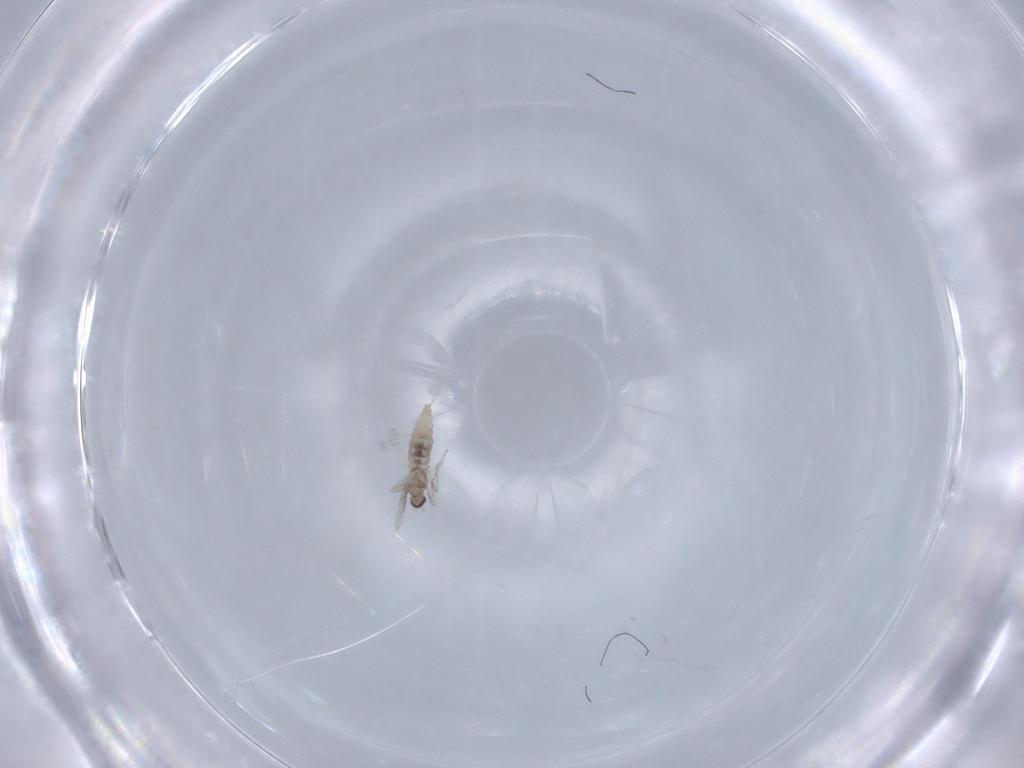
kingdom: Animalia
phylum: Arthropoda
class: Insecta
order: Diptera
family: Cecidomyiidae
